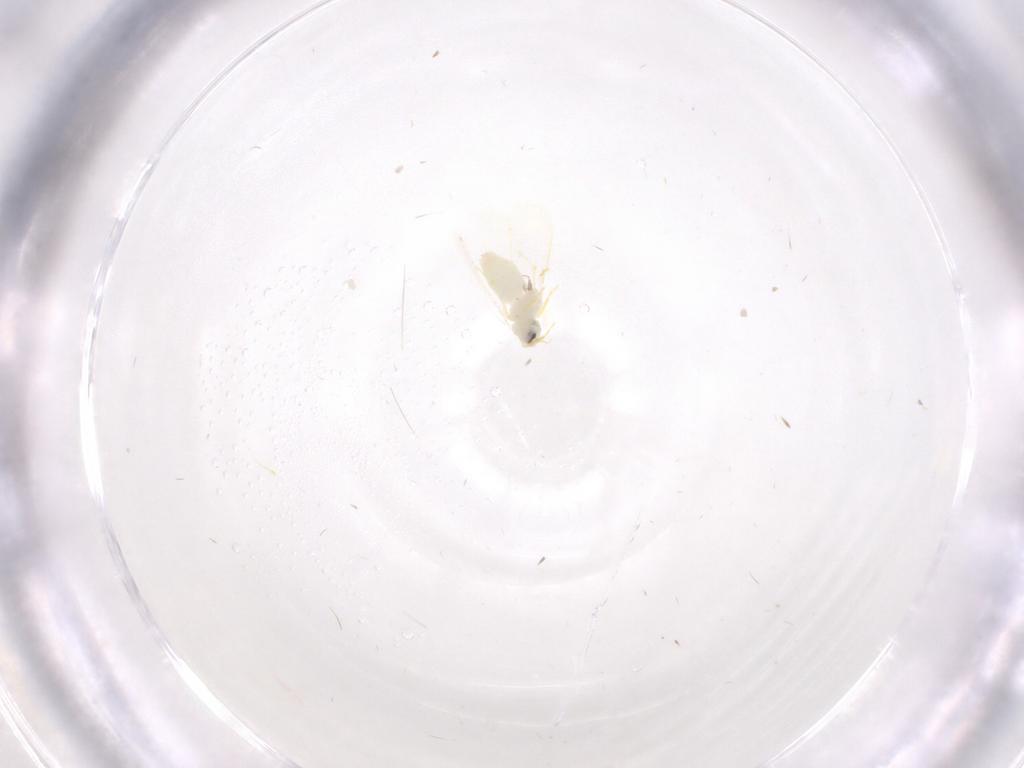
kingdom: Animalia
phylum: Arthropoda
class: Insecta
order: Hemiptera
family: Aleyrodidae
